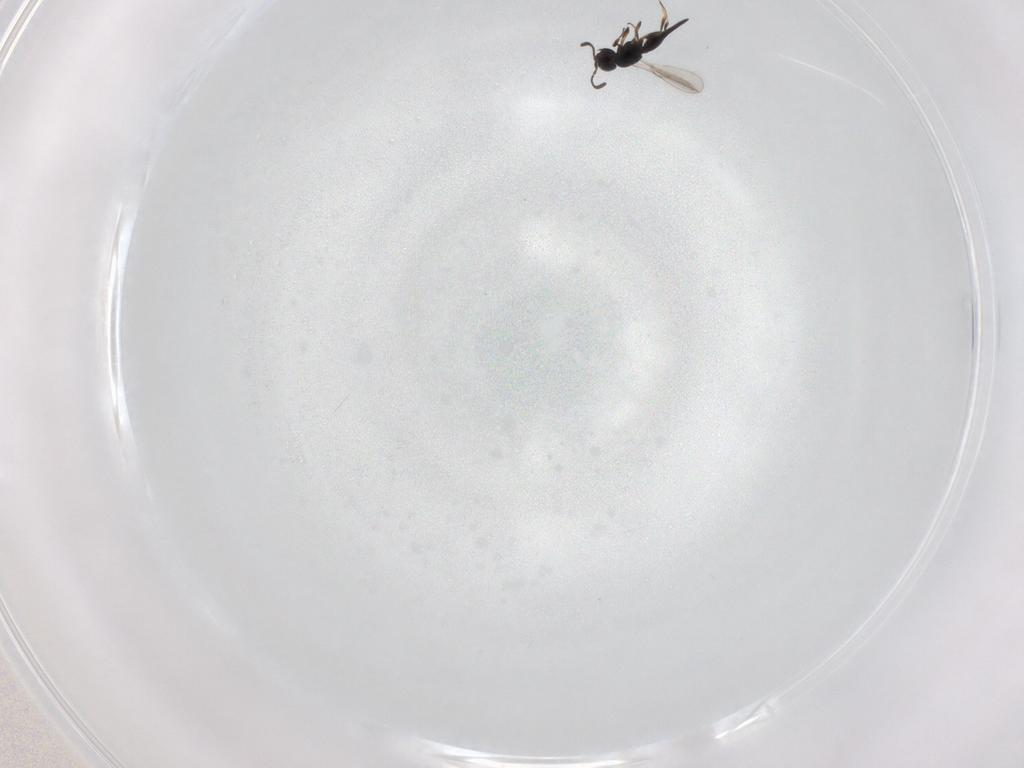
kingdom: Animalia
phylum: Arthropoda
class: Insecta
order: Hymenoptera
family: Scelionidae
